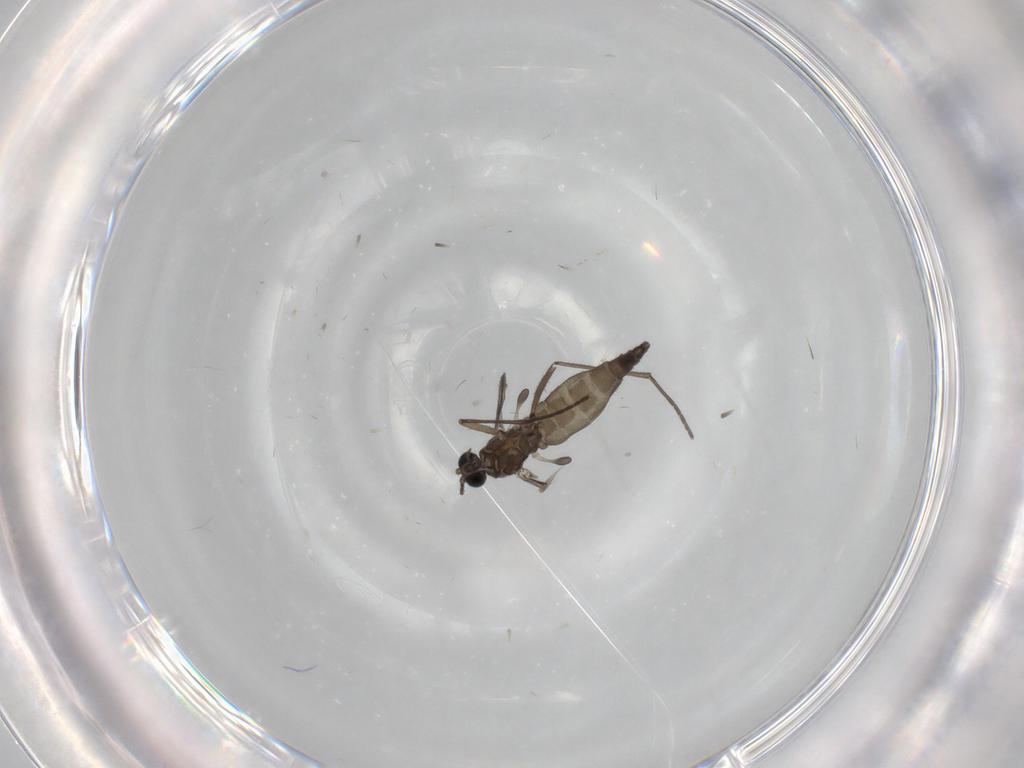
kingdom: Animalia
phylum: Arthropoda
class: Insecta
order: Diptera
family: Sciaridae
